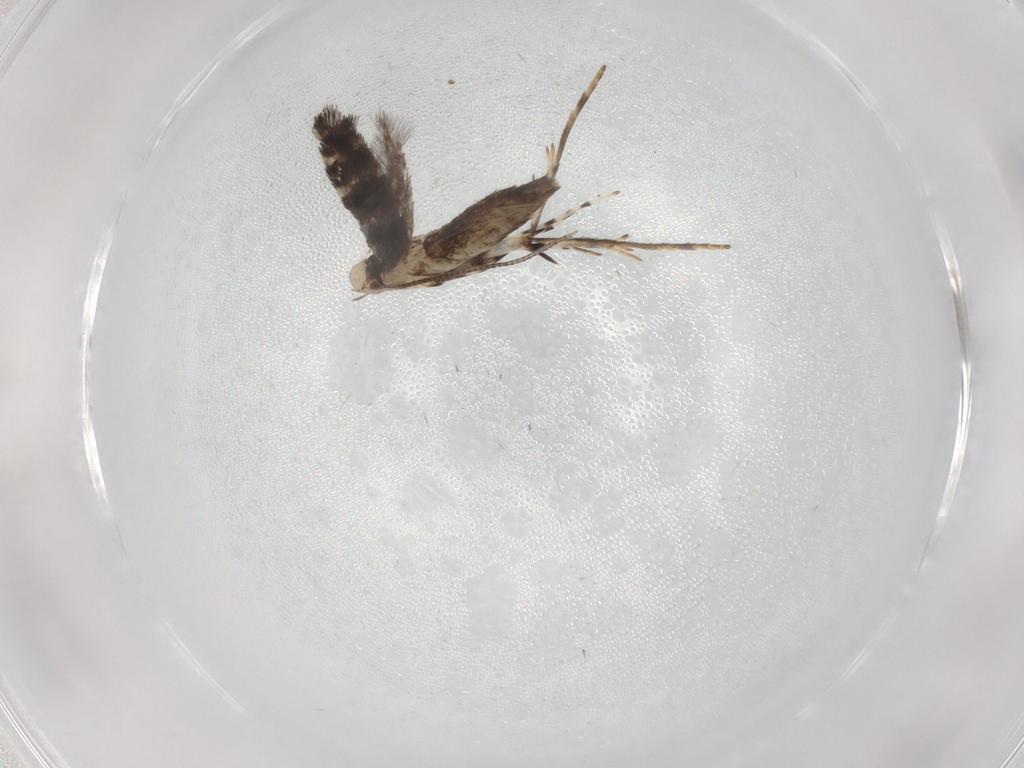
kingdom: Animalia
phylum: Arthropoda
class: Insecta
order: Lepidoptera
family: Gracillariidae
